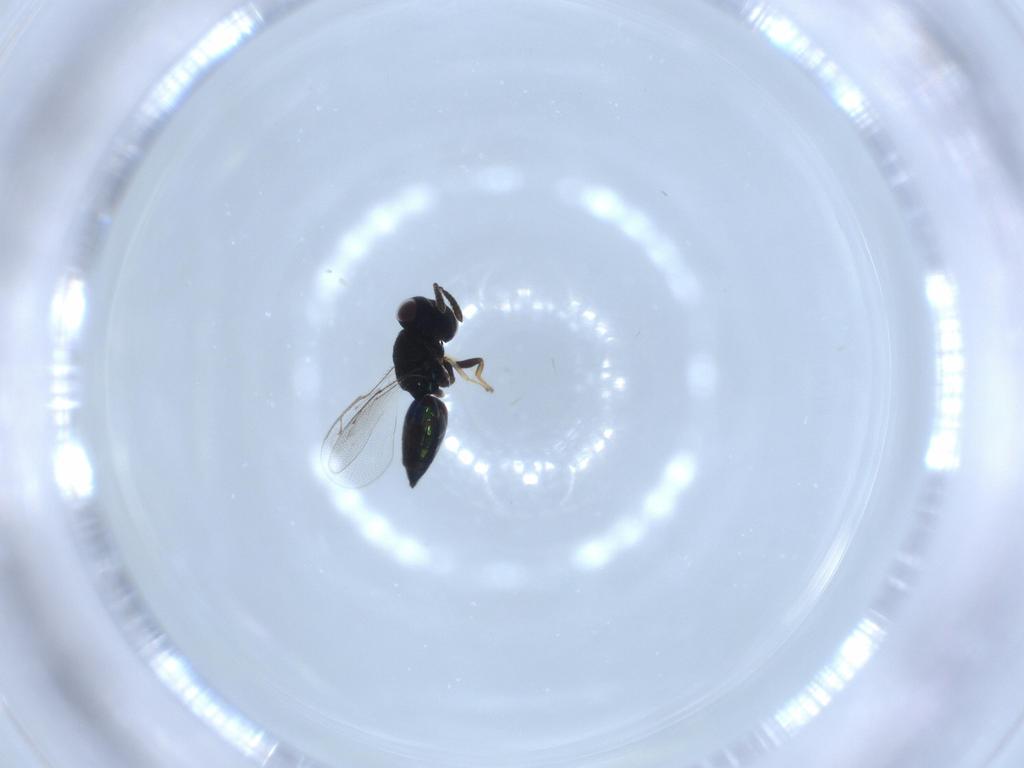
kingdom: Animalia
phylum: Arthropoda
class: Insecta
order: Hymenoptera
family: Pteromalidae
